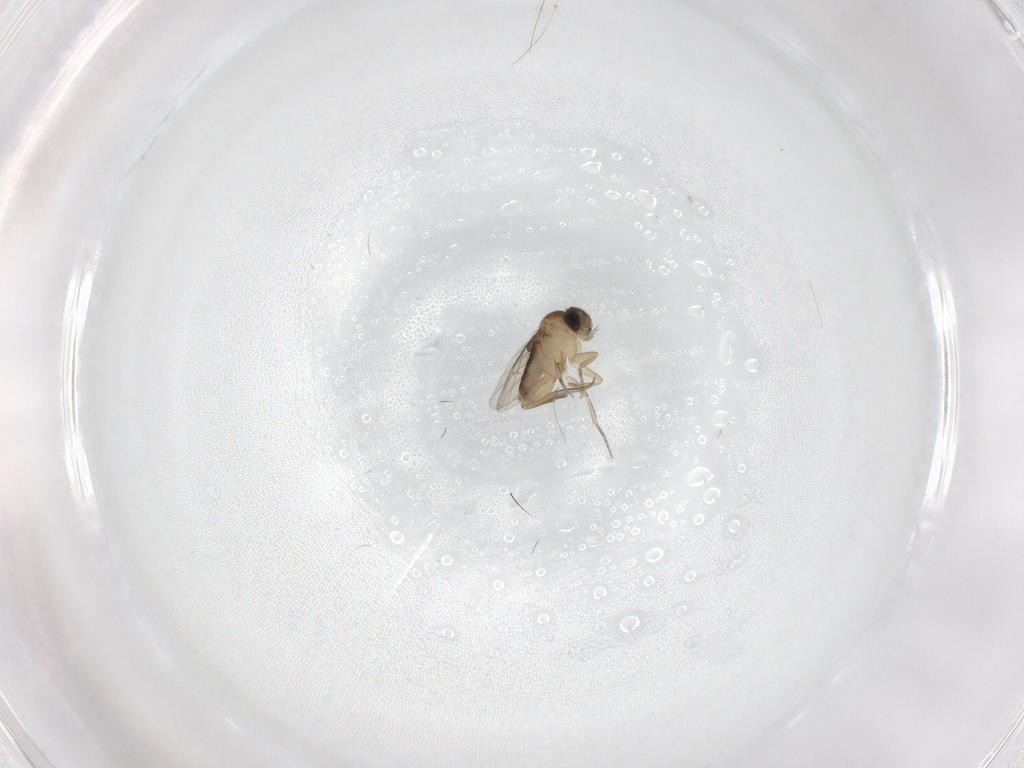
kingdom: Animalia
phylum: Arthropoda
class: Insecta
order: Diptera
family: Phoridae
